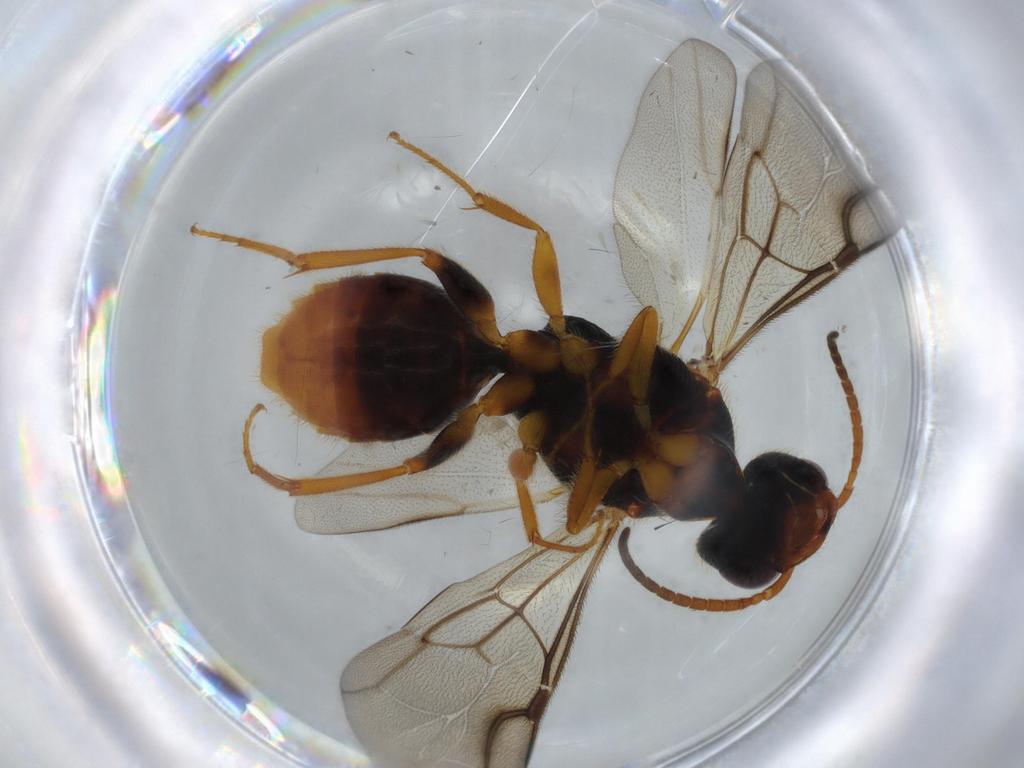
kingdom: Animalia
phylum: Arthropoda
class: Insecta
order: Hymenoptera
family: Bethylidae
